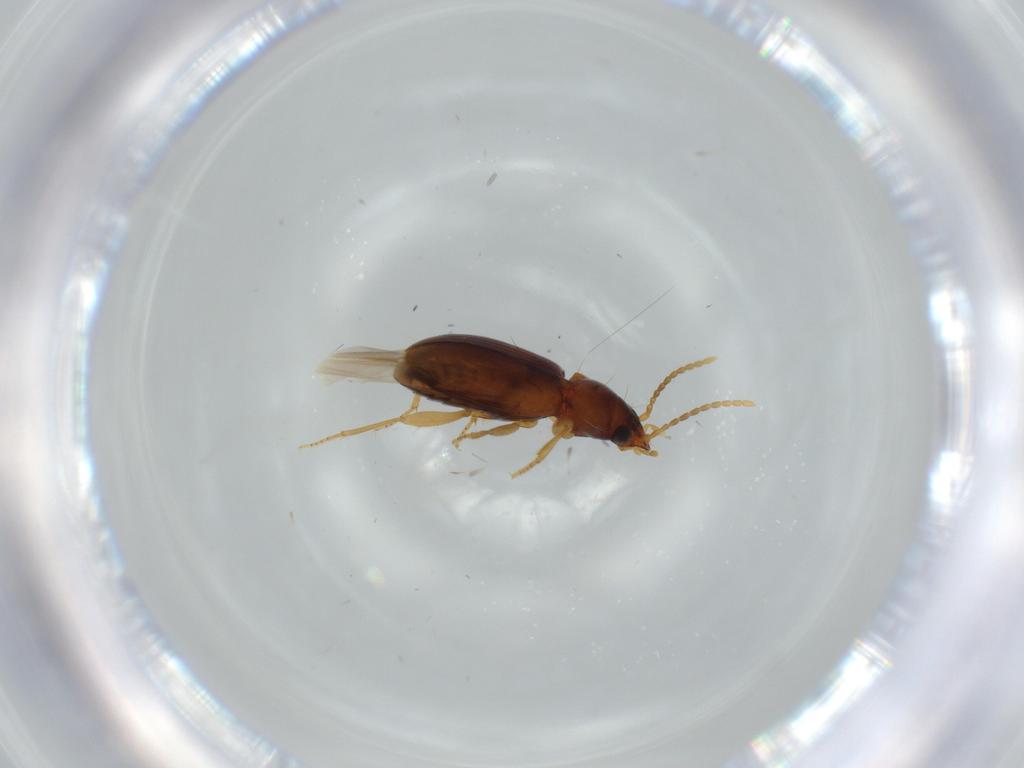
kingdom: Animalia
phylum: Arthropoda
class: Insecta
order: Coleoptera
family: Carabidae
